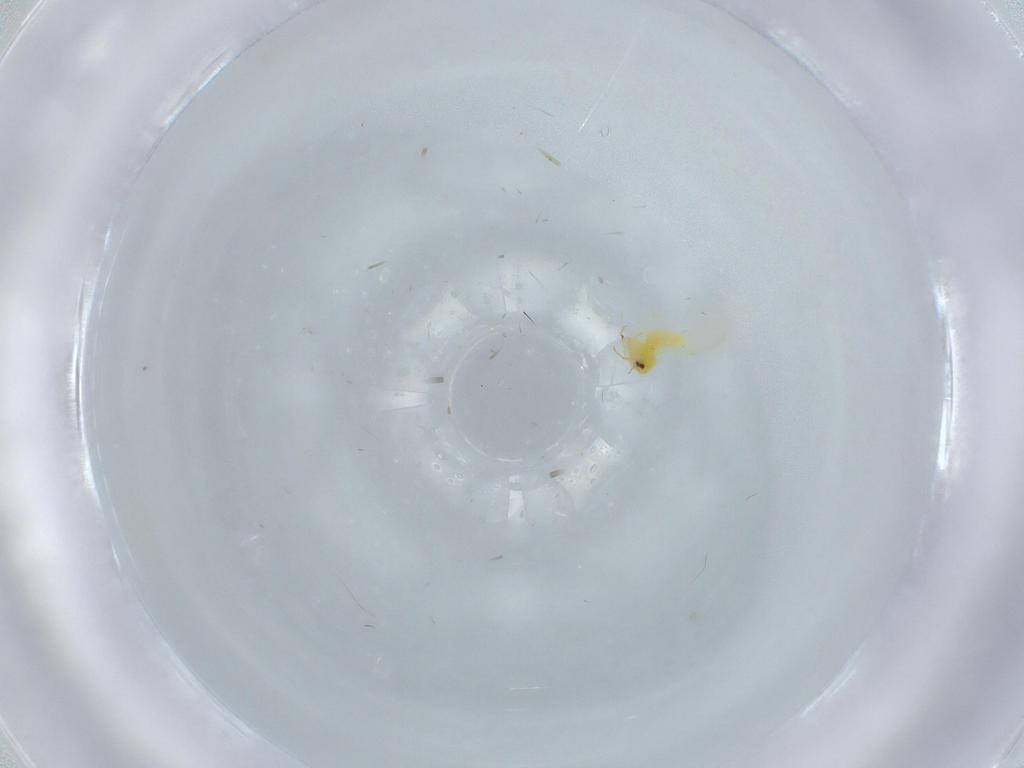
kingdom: Animalia
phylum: Arthropoda
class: Insecta
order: Hemiptera
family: Aleyrodidae
